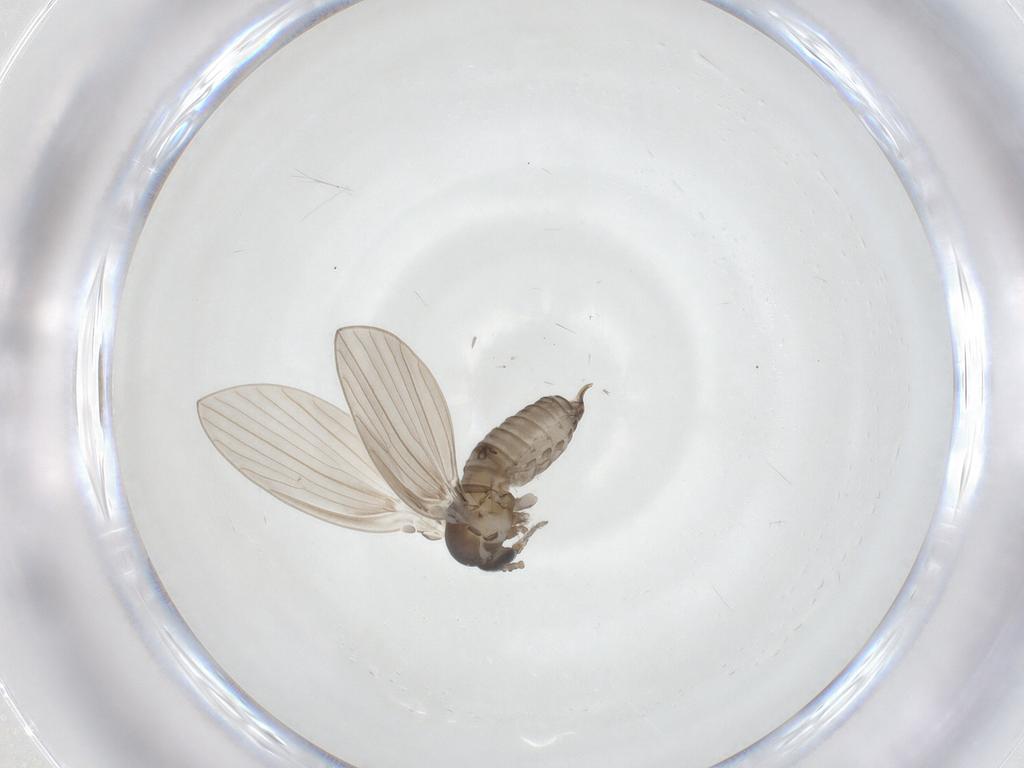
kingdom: Animalia
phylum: Arthropoda
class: Insecta
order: Diptera
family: Psychodidae
